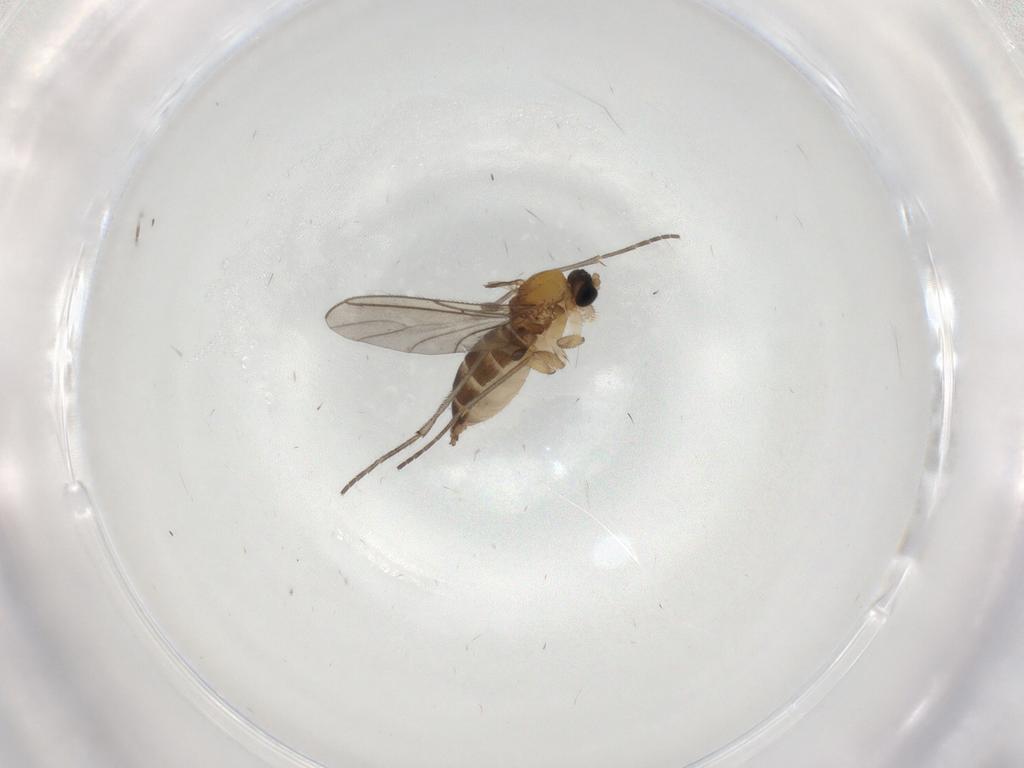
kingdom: Animalia
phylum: Arthropoda
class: Insecta
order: Diptera
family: Sciaridae
